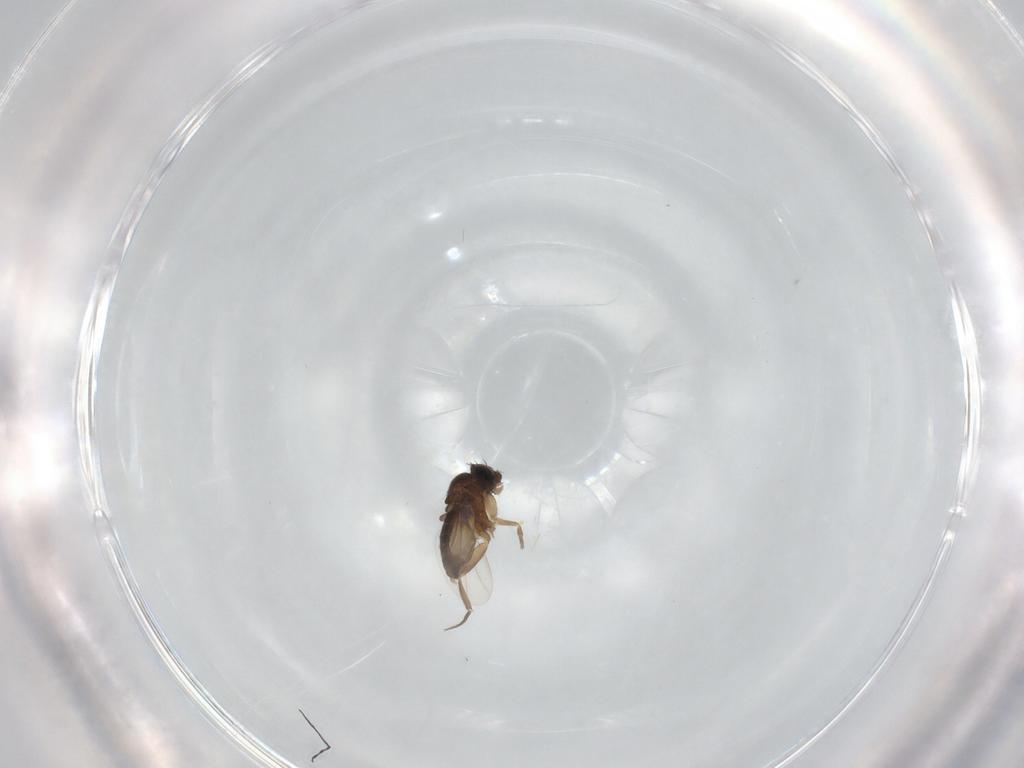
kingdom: Animalia
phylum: Arthropoda
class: Insecta
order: Diptera
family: Phoridae
